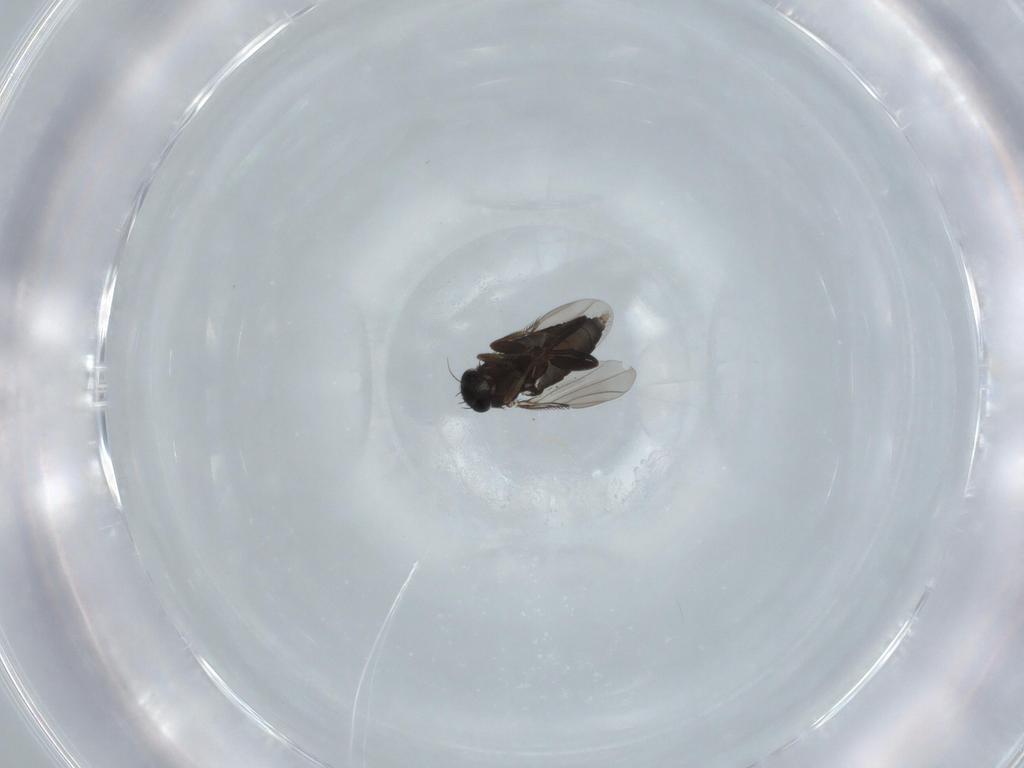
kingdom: Animalia
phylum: Arthropoda
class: Insecta
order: Diptera
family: Phoridae
